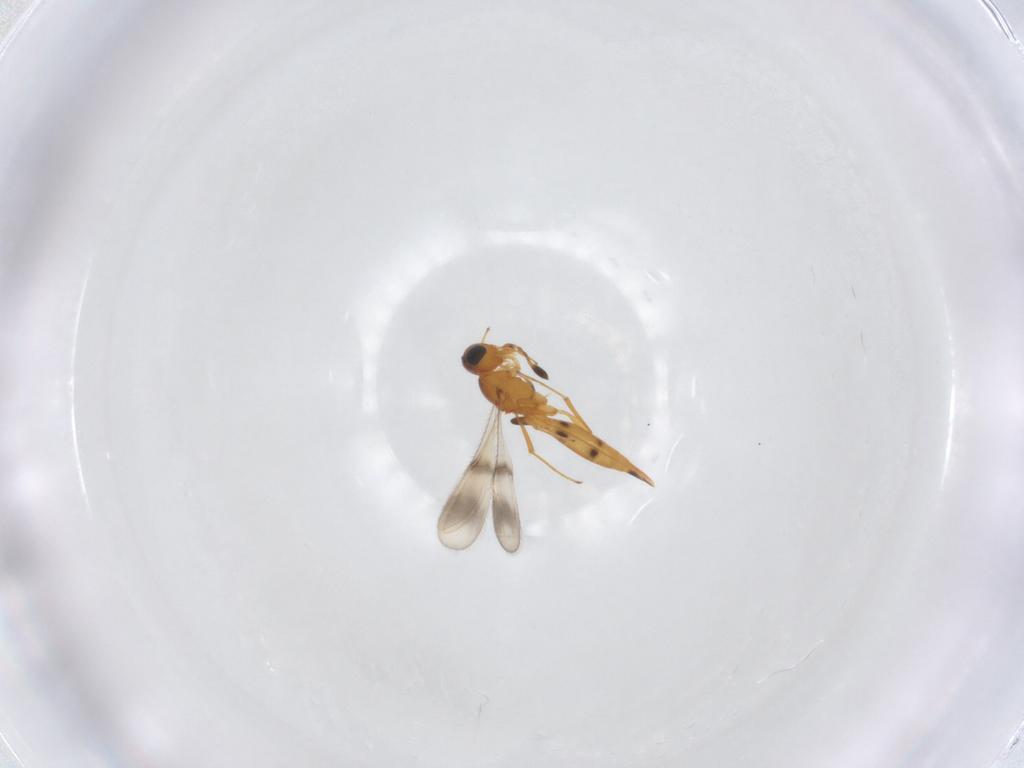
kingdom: Animalia
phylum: Arthropoda
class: Insecta
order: Hymenoptera
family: Scelionidae
